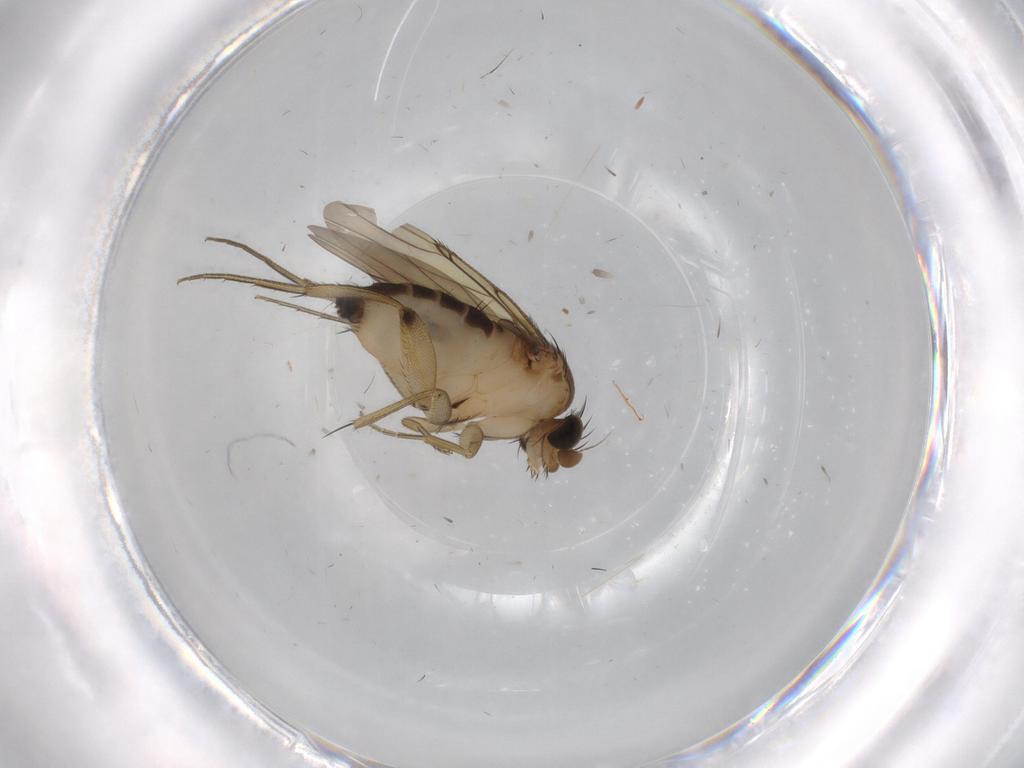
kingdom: Animalia
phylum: Arthropoda
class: Insecta
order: Diptera
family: Phoridae
